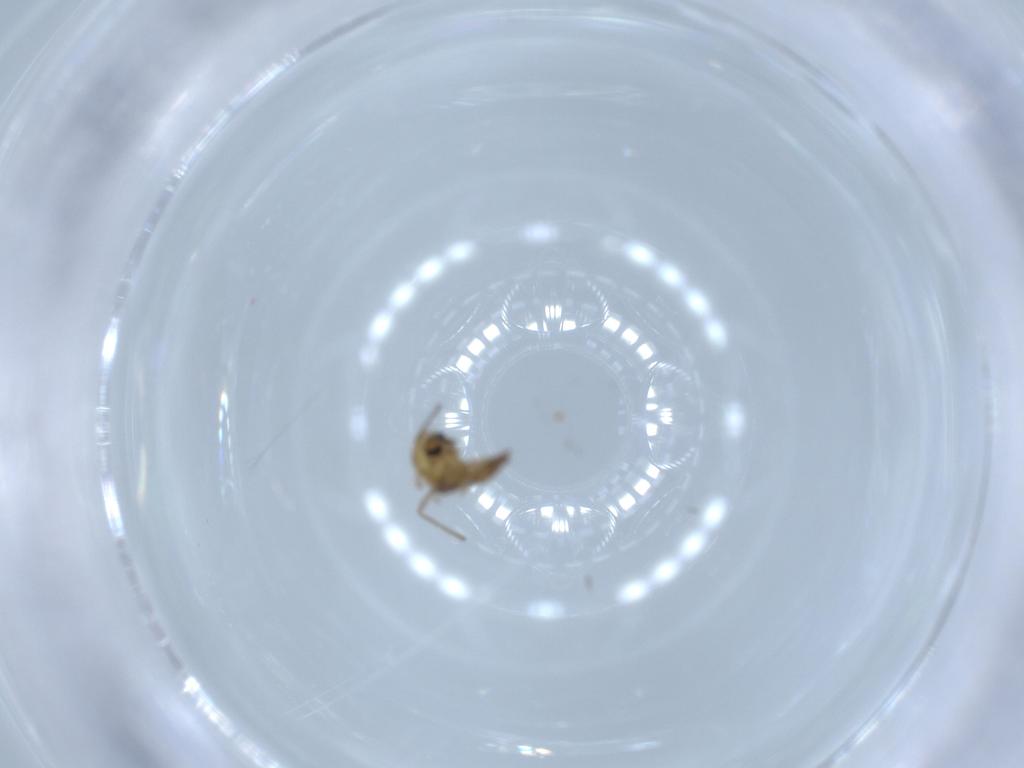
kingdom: Animalia
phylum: Arthropoda
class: Insecta
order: Diptera
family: Chironomidae
